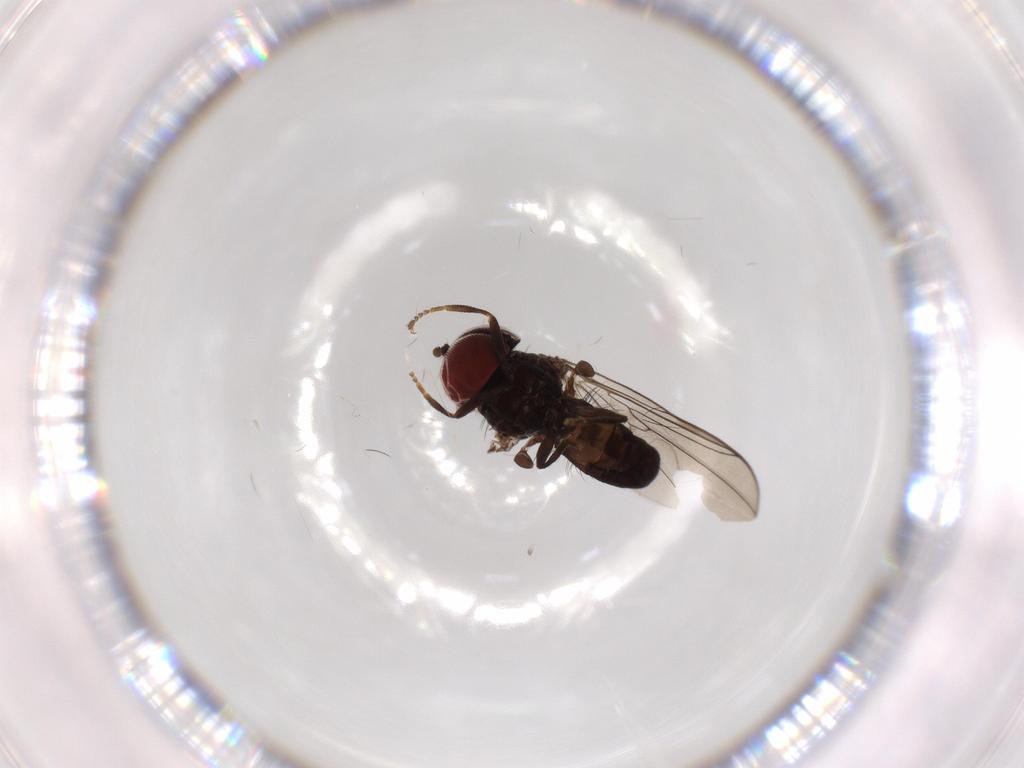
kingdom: Animalia
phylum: Arthropoda
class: Insecta
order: Diptera
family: Pipunculidae
